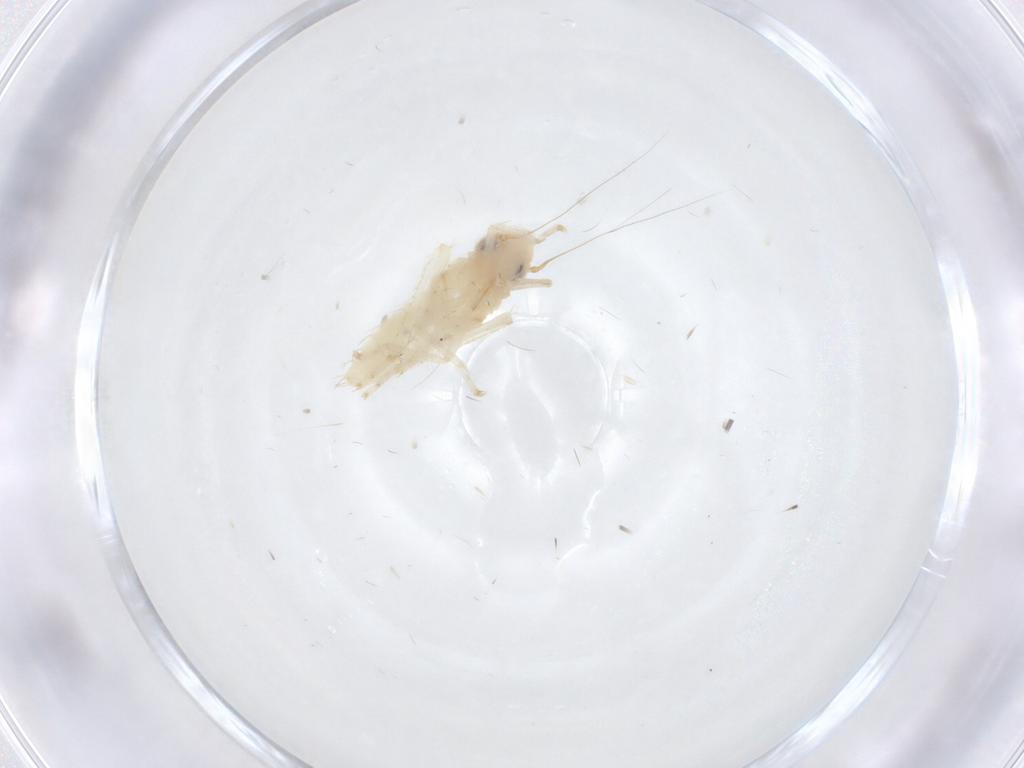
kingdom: Animalia
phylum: Arthropoda
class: Insecta
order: Hemiptera
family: Cicadellidae
